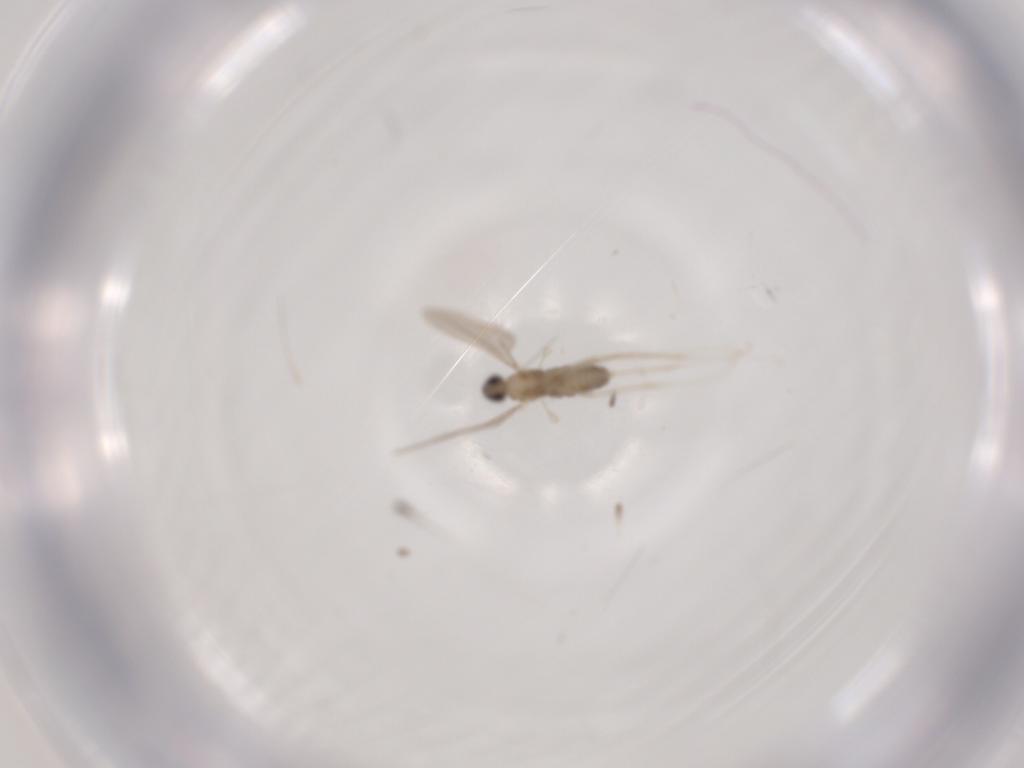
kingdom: Animalia
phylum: Arthropoda
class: Insecta
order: Diptera
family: Cecidomyiidae
